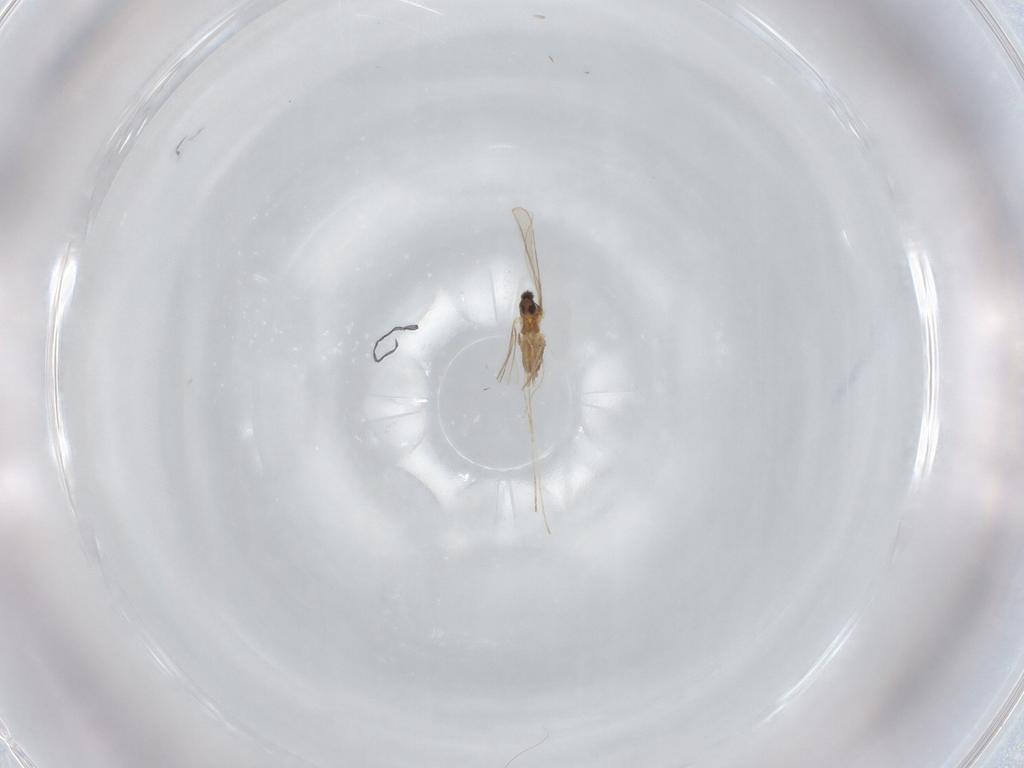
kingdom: Animalia
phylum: Arthropoda
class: Insecta
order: Diptera
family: Cecidomyiidae
